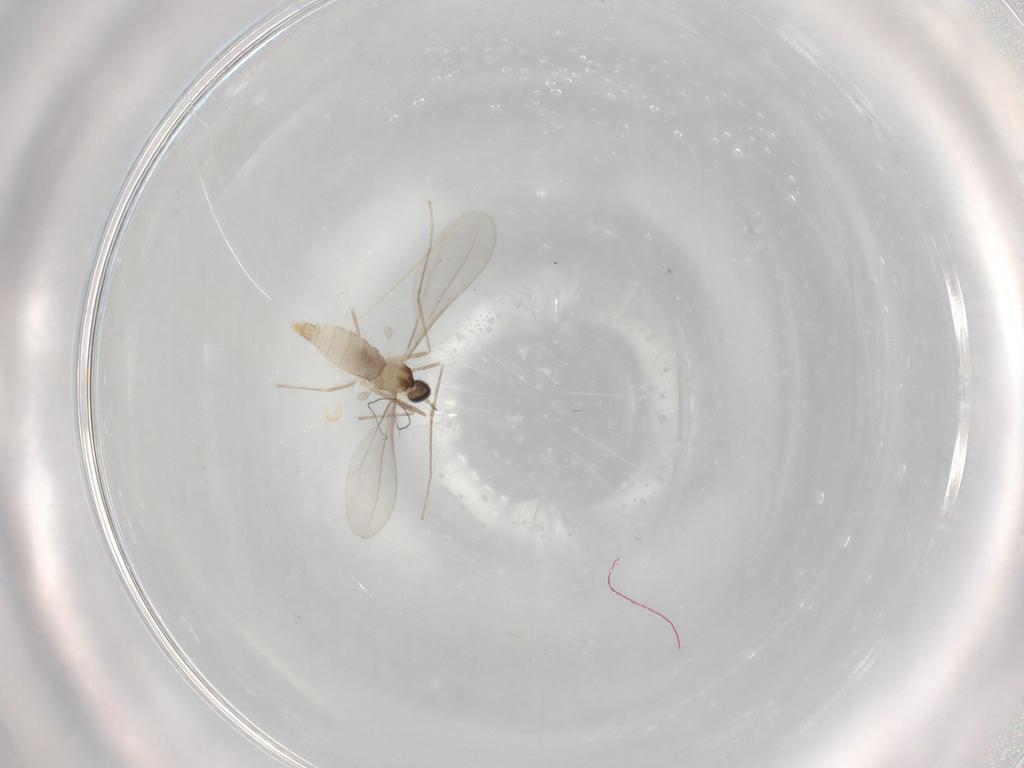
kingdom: Animalia
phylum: Arthropoda
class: Insecta
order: Diptera
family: Cecidomyiidae
